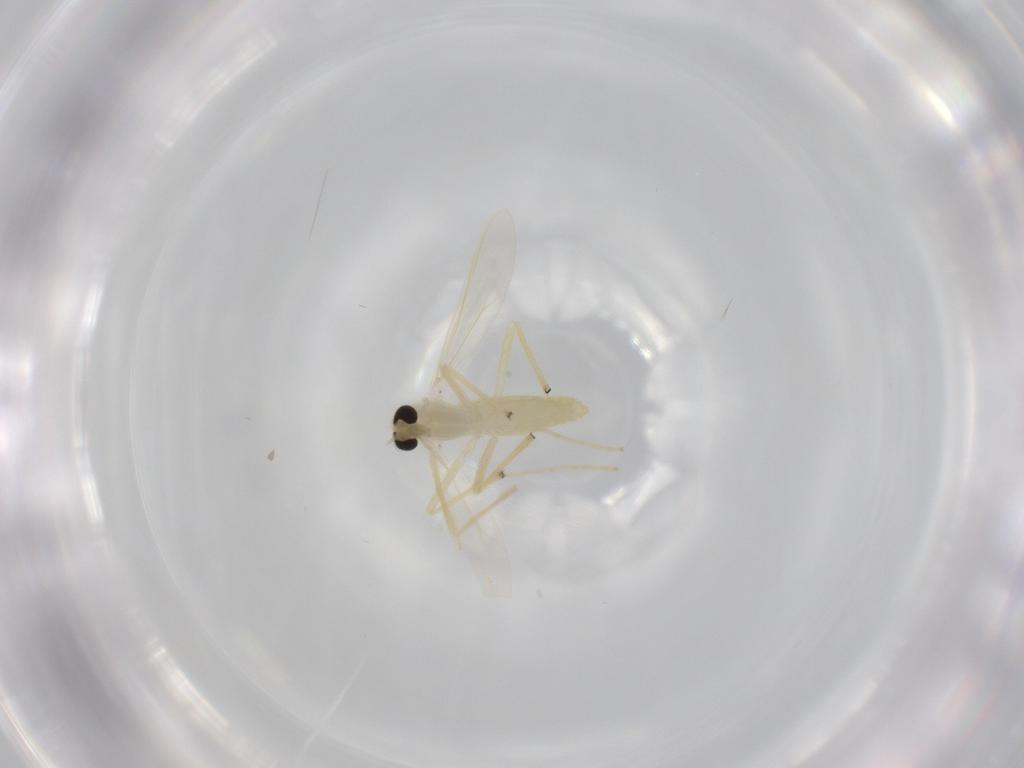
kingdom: Animalia
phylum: Arthropoda
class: Insecta
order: Diptera
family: Chironomidae
